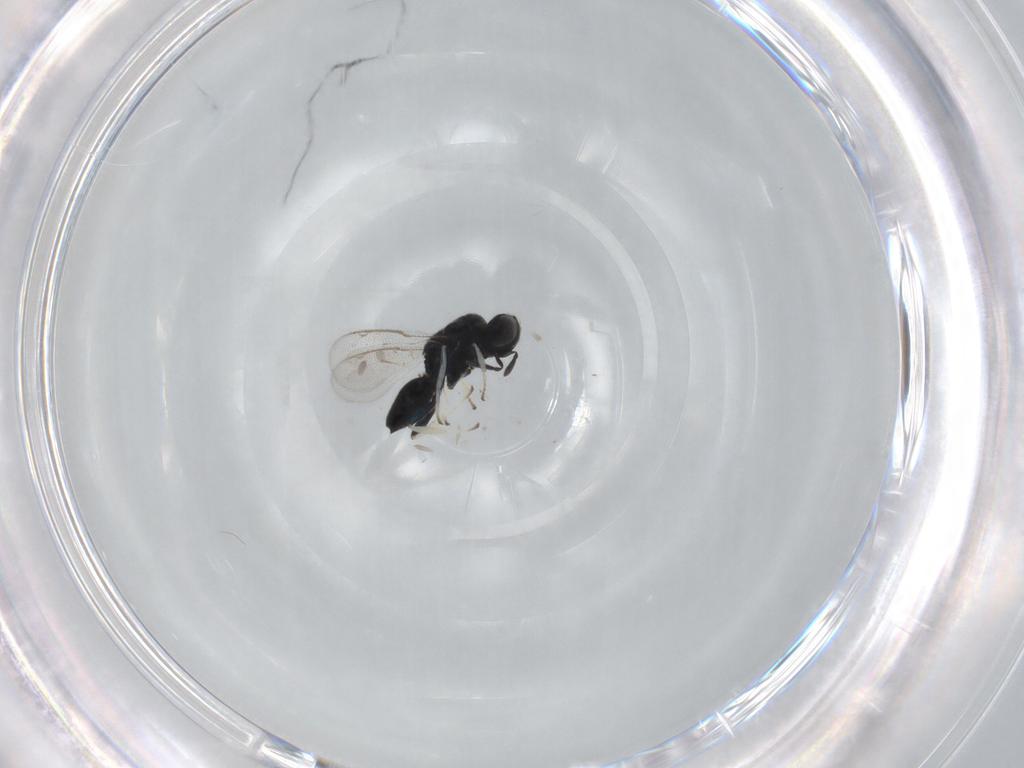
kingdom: Animalia
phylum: Arthropoda
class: Insecta
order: Hymenoptera
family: Herbertiidae
